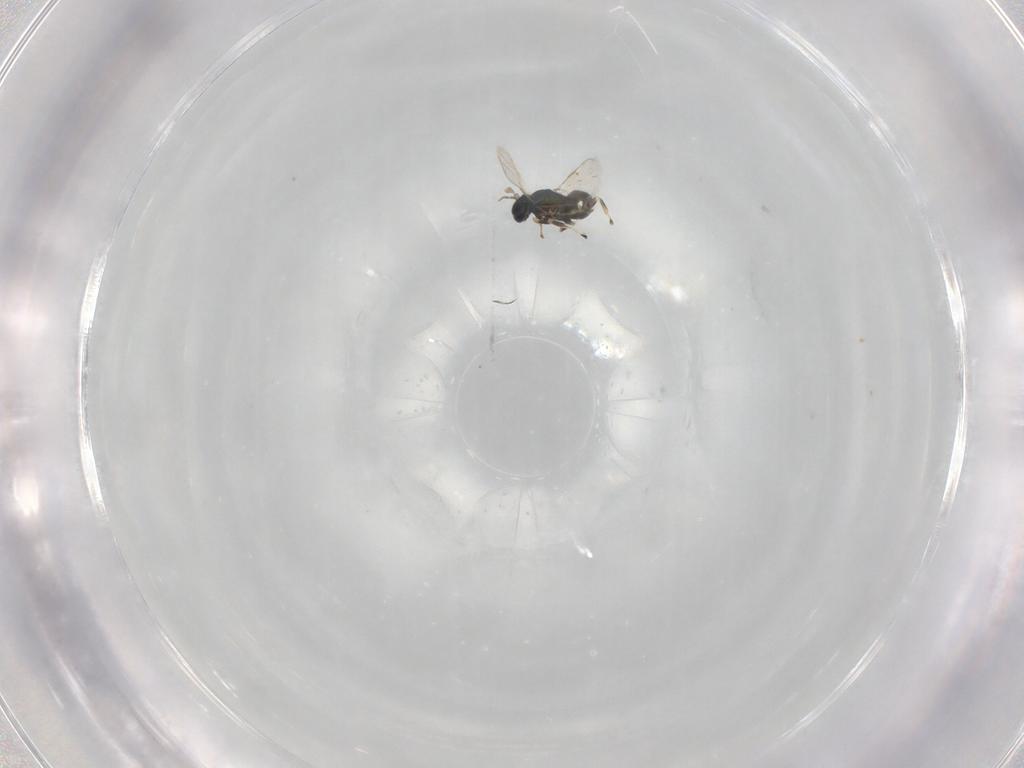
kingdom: Animalia
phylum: Arthropoda
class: Insecta
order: Hymenoptera
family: Eulophidae
